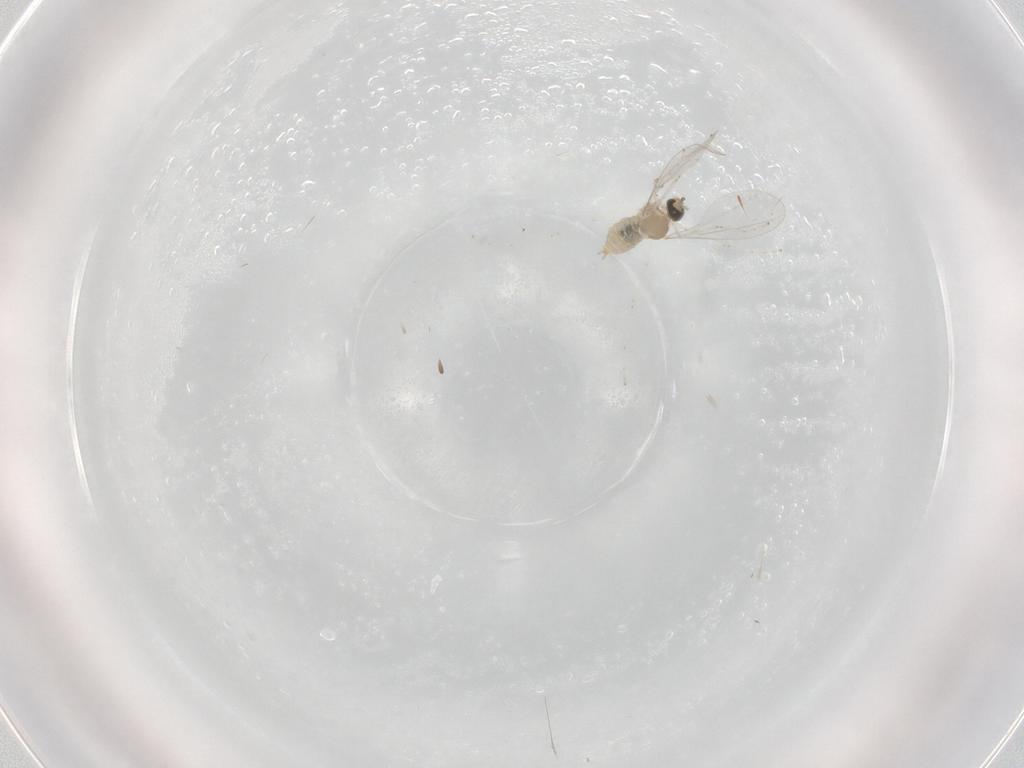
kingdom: Animalia
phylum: Arthropoda
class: Insecta
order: Diptera
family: Cecidomyiidae
